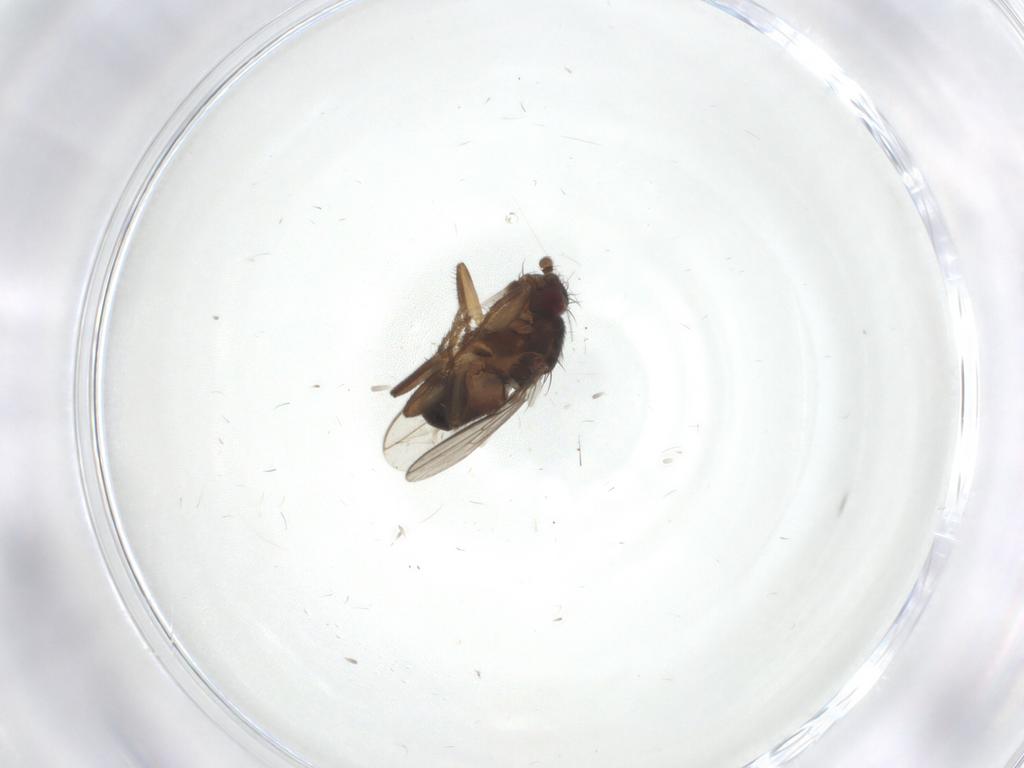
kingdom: Animalia
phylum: Arthropoda
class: Insecta
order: Diptera
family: Sphaeroceridae
